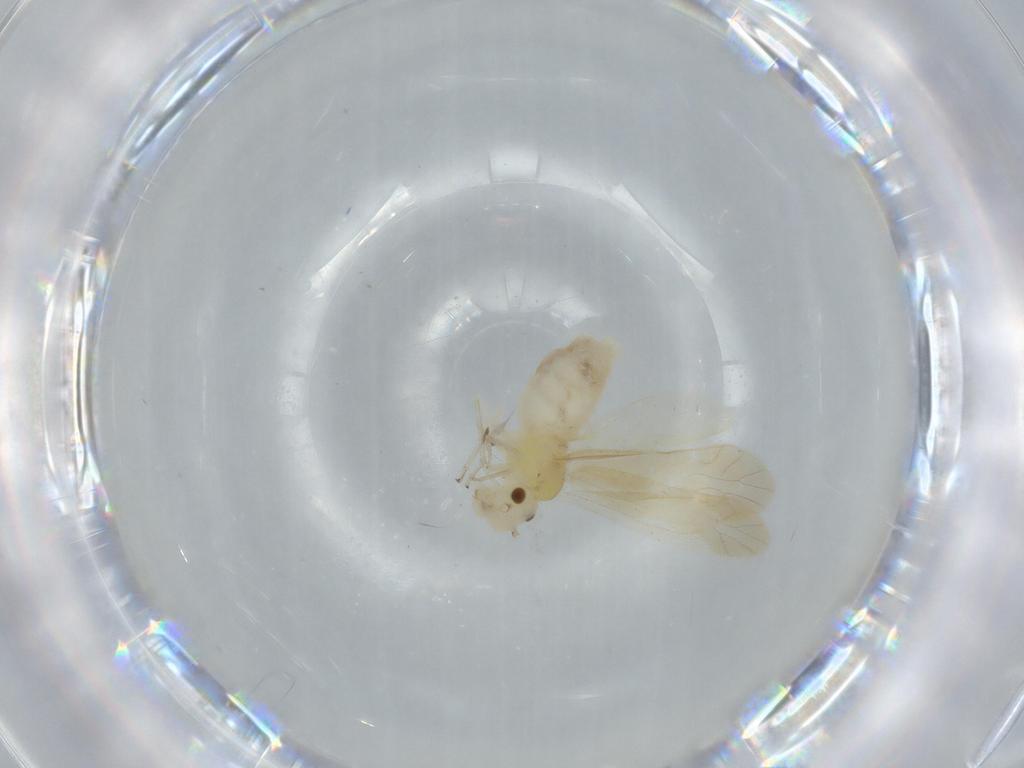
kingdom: Animalia
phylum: Arthropoda
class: Insecta
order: Psocodea
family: Caeciliusidae
